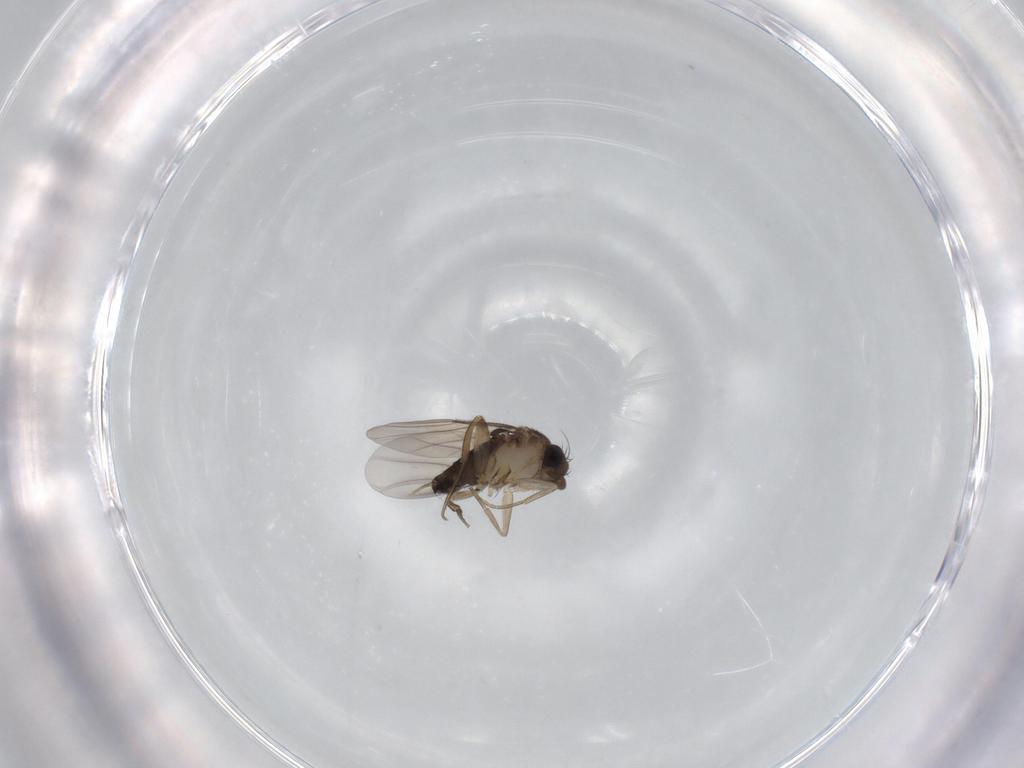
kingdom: Animalia
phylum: Arthropoda
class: Insecta
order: Diptera
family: Phoridae
